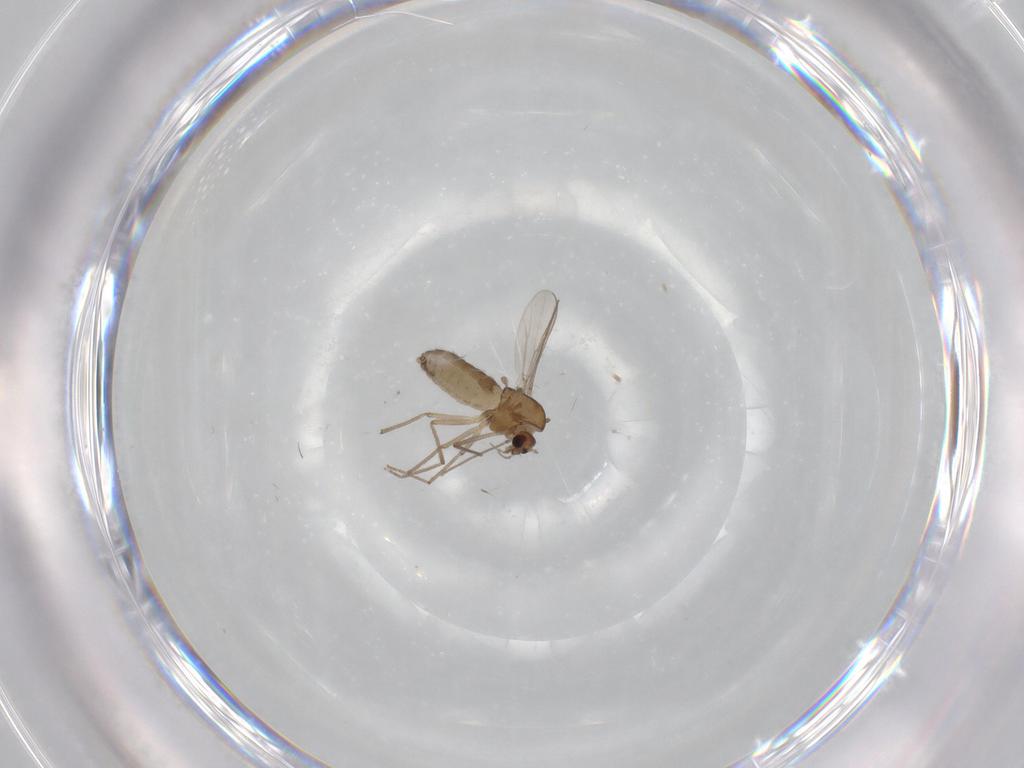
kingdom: Animalia
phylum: Arthropoda
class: Insecta
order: Diptera
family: Chironomidae
